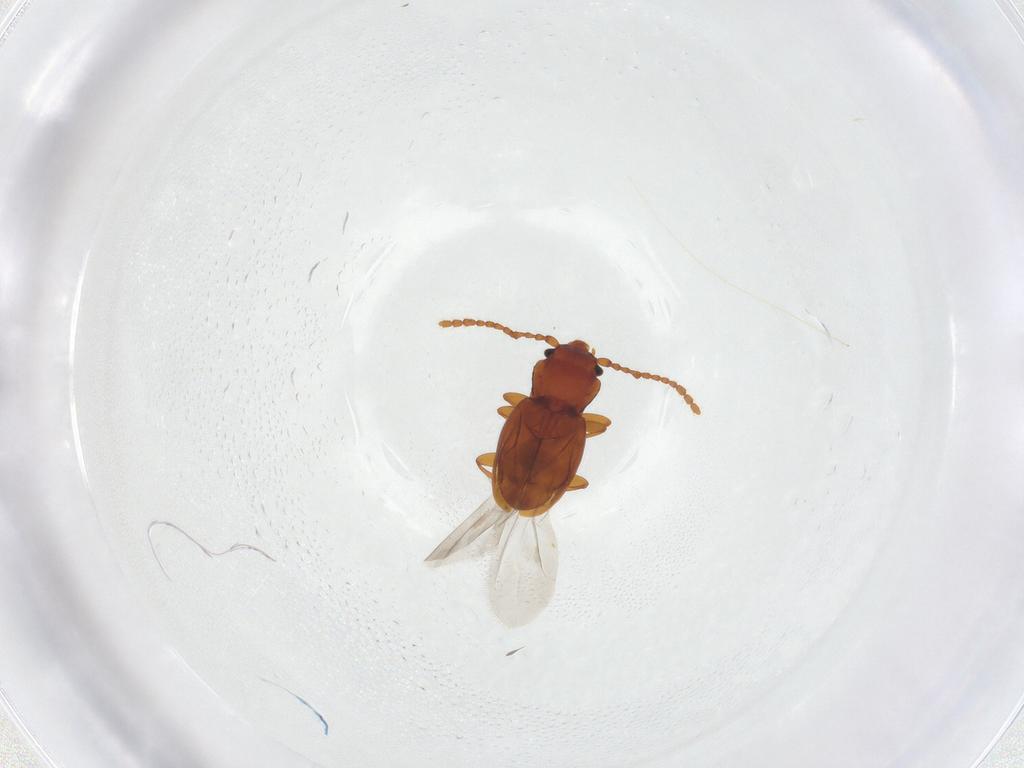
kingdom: Animalia
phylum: Arthropoda
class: Insecta
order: Coleoptera
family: Laemophloeidae
